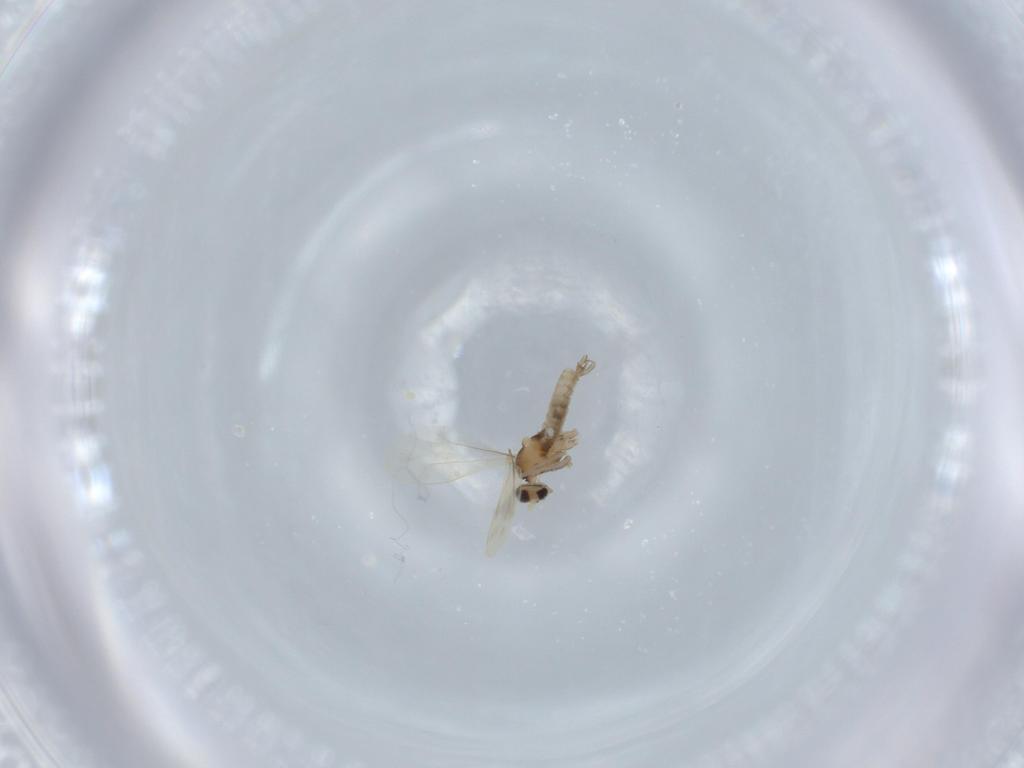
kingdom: Animalia
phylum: Arthropoda
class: Insecta
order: Diptera
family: Cecidomyiidae
